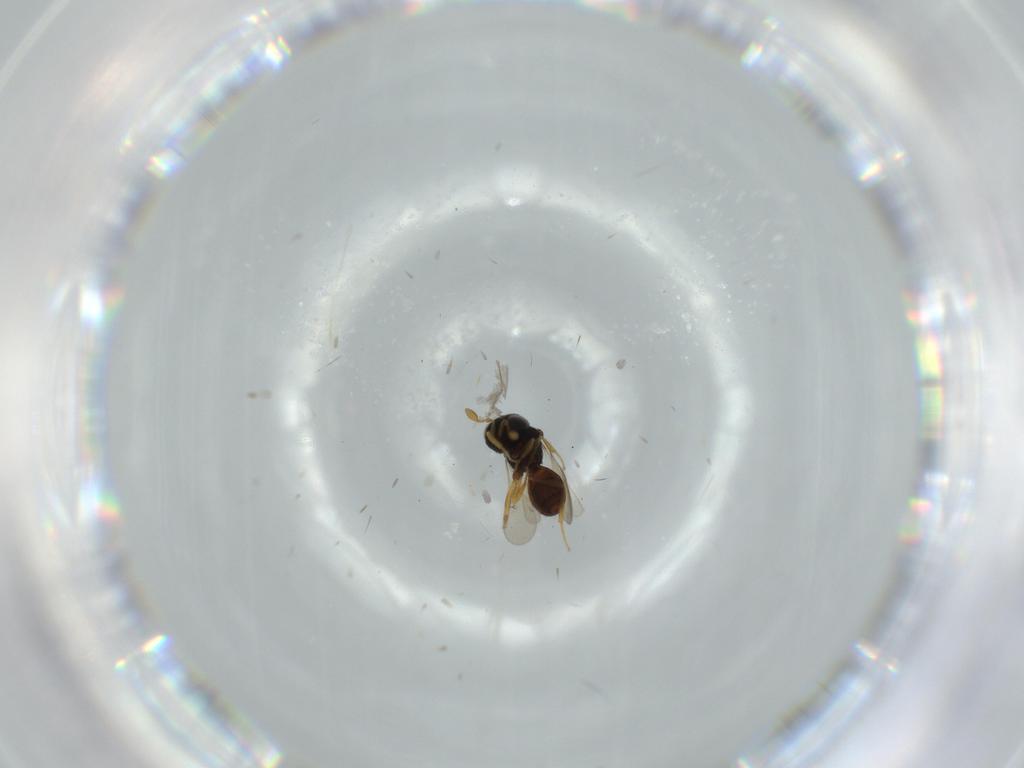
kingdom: Animalia
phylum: Arthropoda
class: Insecta
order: Hymenoptera
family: Scelionidae
